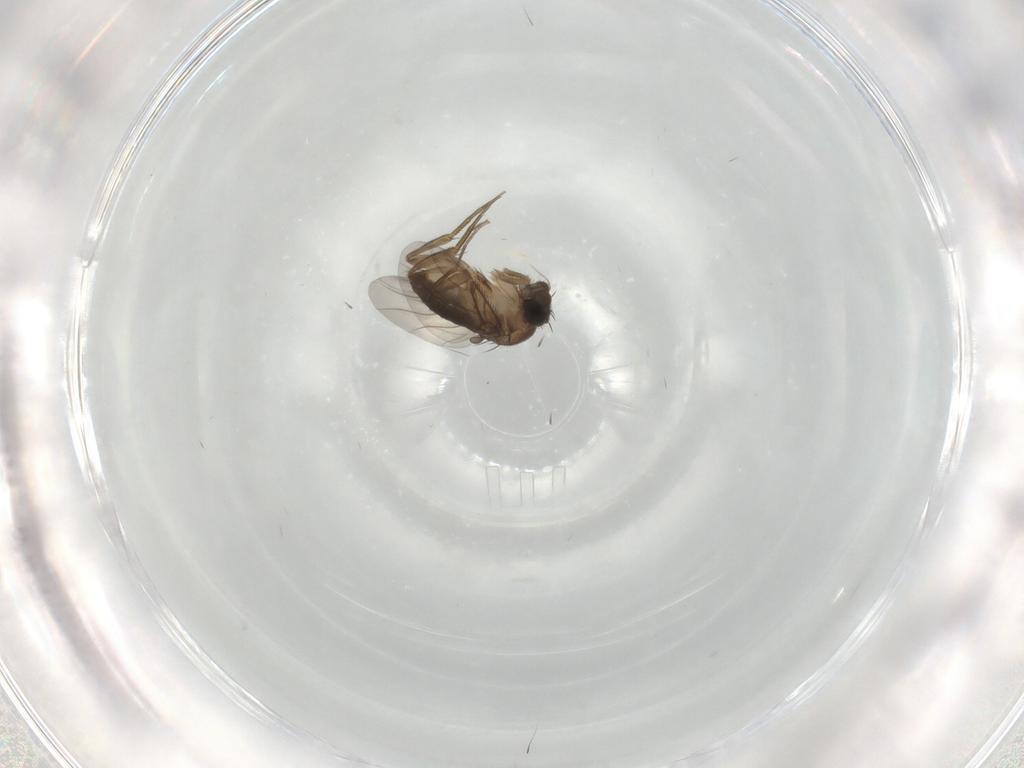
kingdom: Animalia
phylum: Arthropoda
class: Insecta
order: Diptera
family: Phoridae
